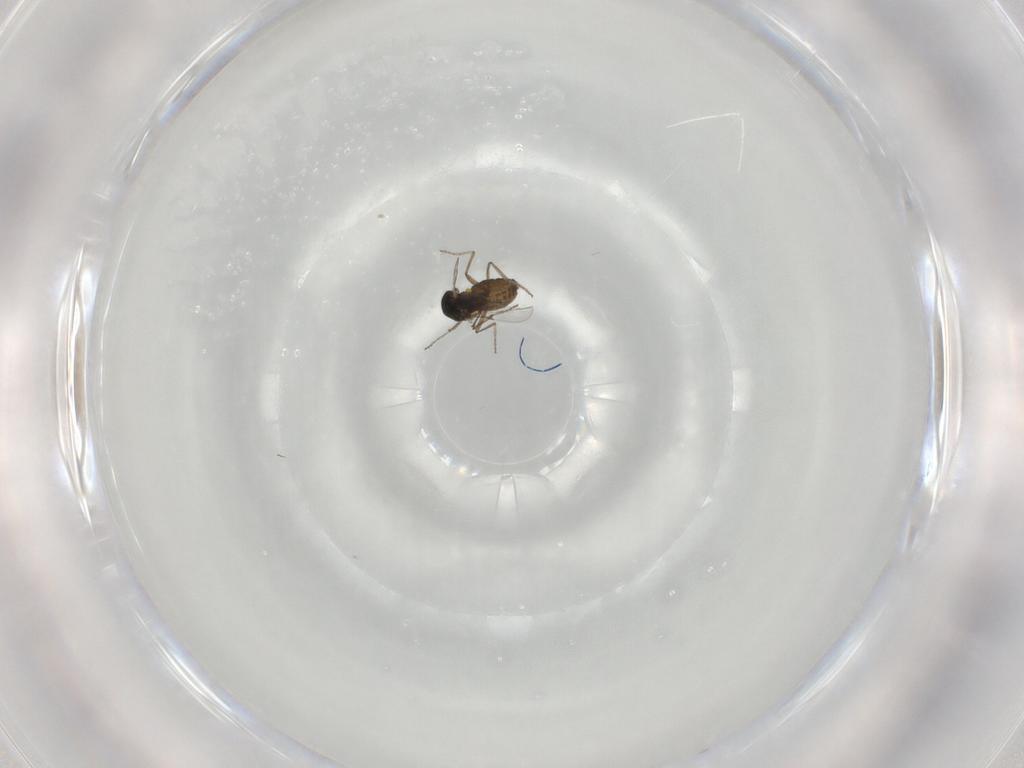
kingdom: Animalia
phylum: Arthropoda
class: Insecta
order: Diptera
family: Ceratopogonidae
